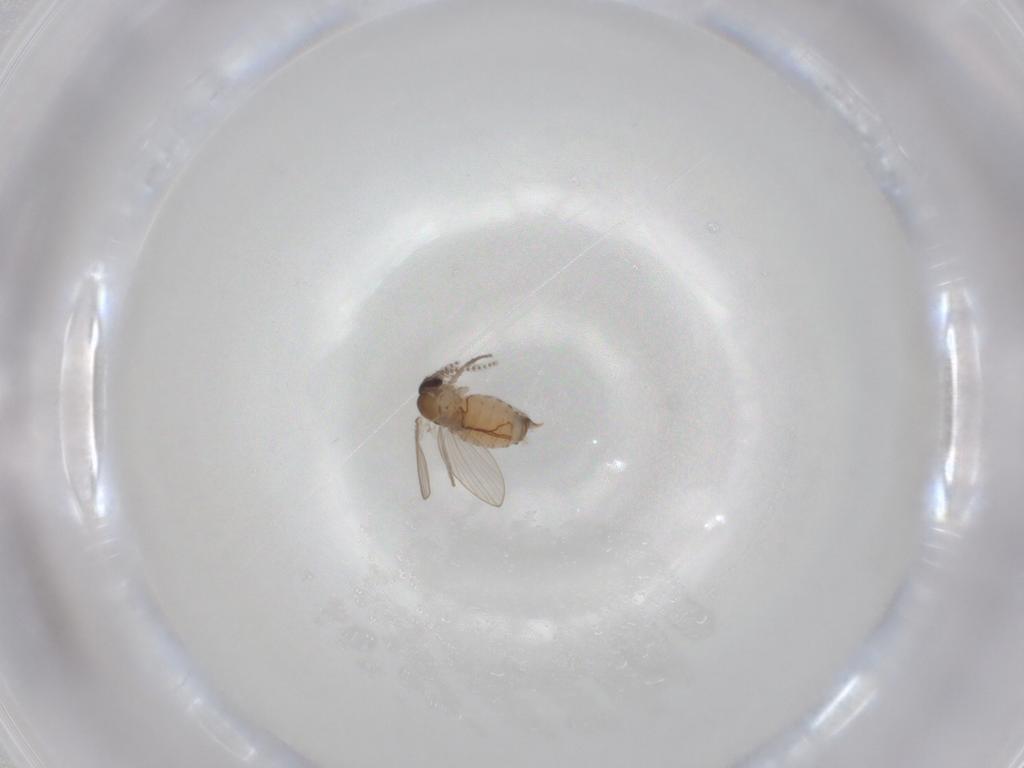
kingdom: Animalia
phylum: Arthropoda
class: Insecta
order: Diptera
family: Psychodidae
